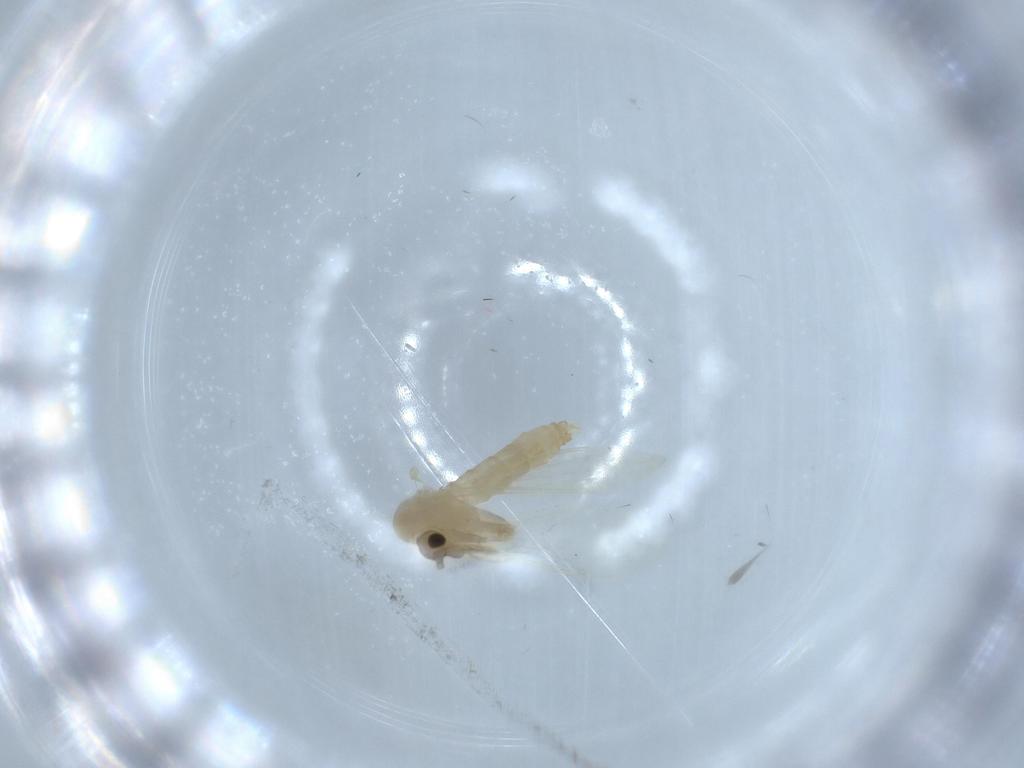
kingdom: Animalia
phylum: Arthropoda
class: Insecta
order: Diptera
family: Psychodidae
